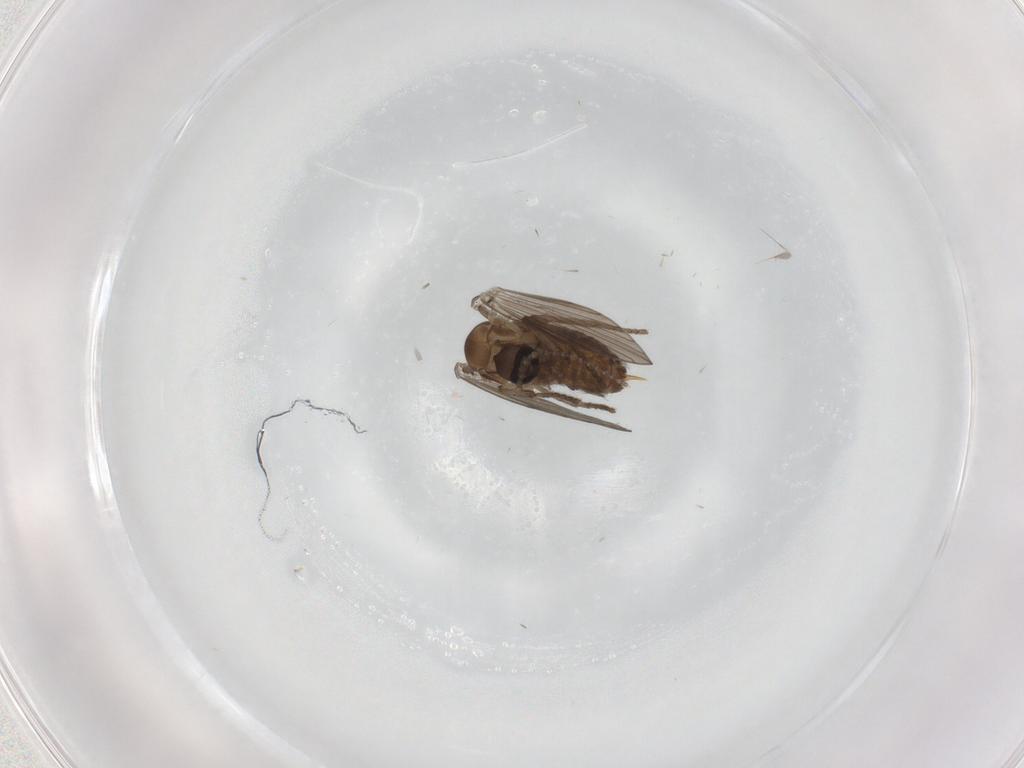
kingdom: Animalia
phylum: Arthropoda
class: Insecta
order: Diptera
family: Psychodidae
